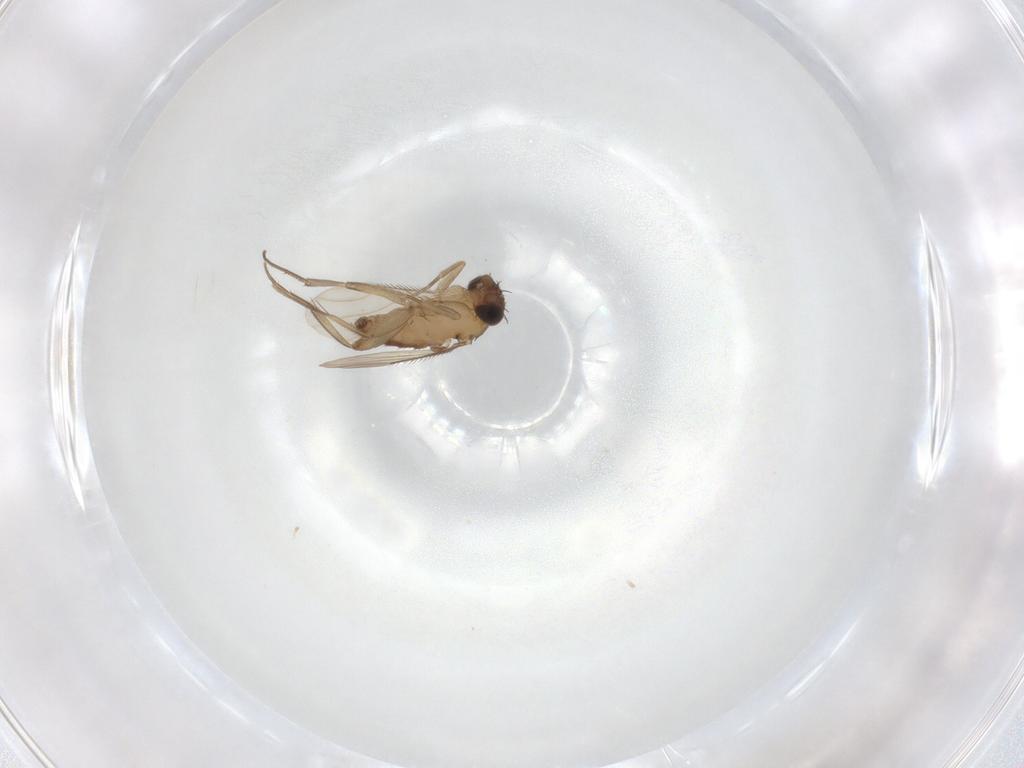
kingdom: Animalia
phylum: Arthropoda
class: Insecta
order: Diptera
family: Phoridae
